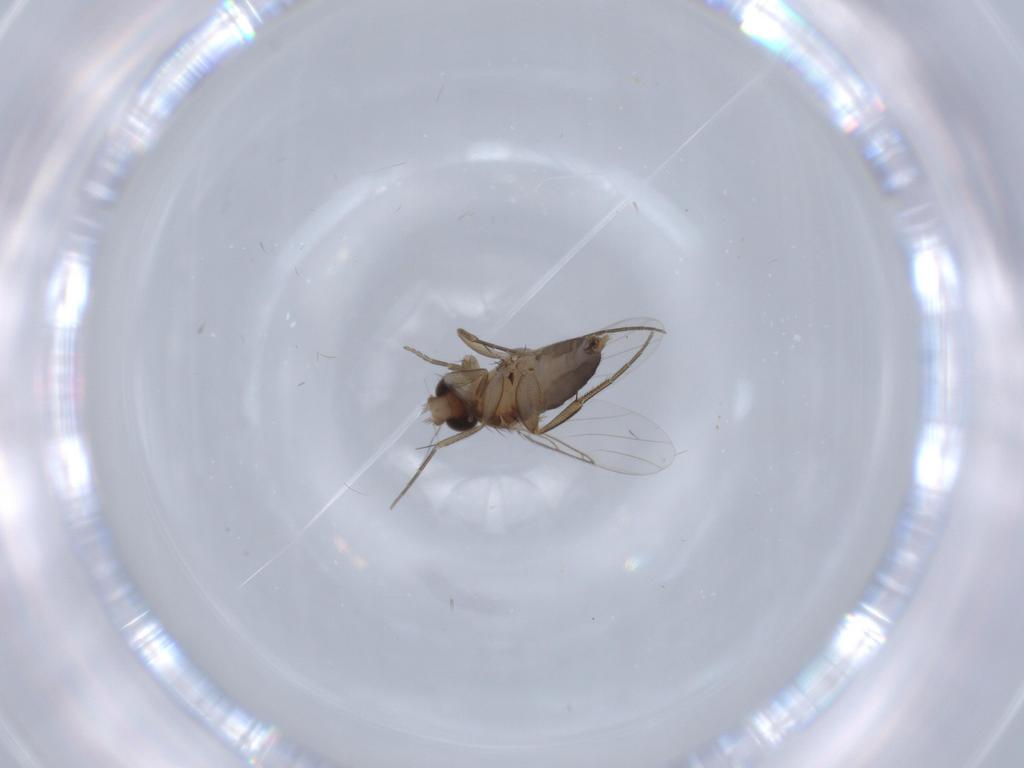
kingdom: Animalia
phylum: Arthropoda
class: Insecta
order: Diptera
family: Phoridae
